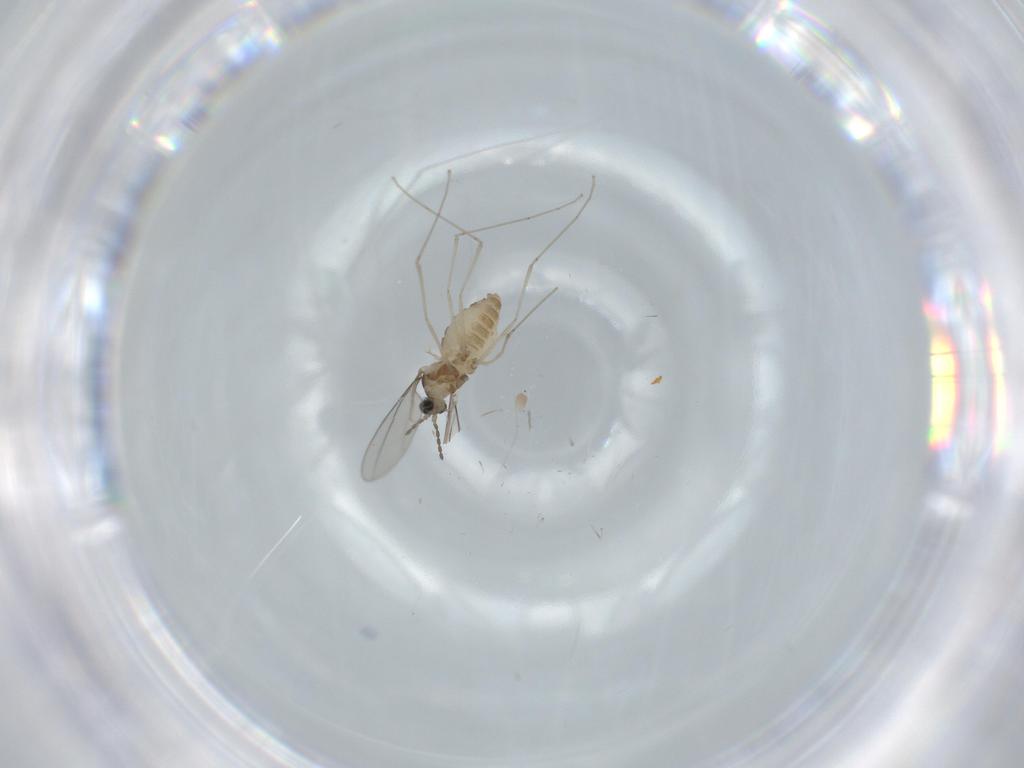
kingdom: Animalia
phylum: Arthropoda
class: Insecta
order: Diptera
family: Cecidomyiidae
